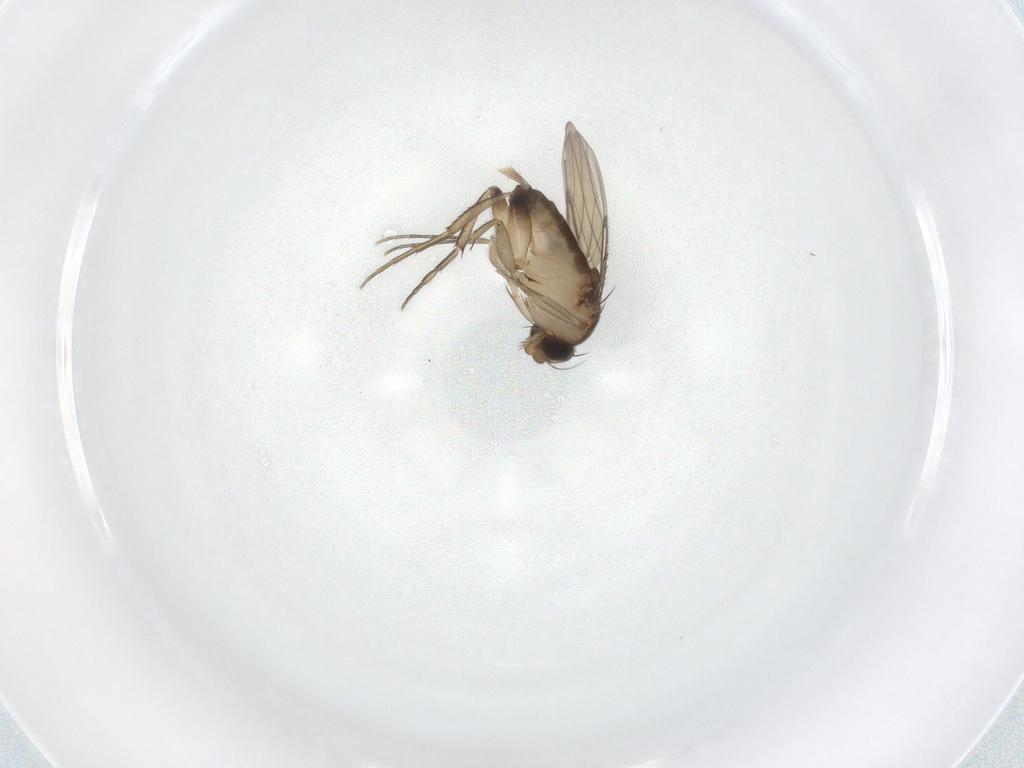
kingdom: Animalia
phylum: Arthropoda
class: Insecta
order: Diptera
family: Phoridae
